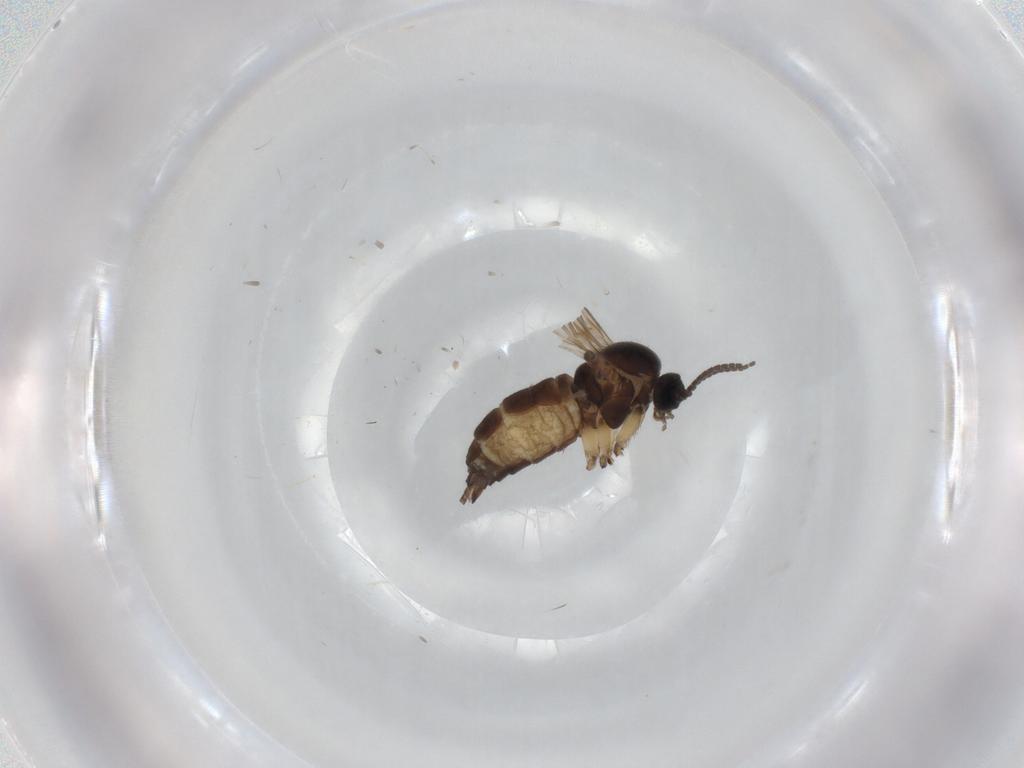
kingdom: Animalia
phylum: Arthropoda
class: Insecta
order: Diptera
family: Sciaridae
